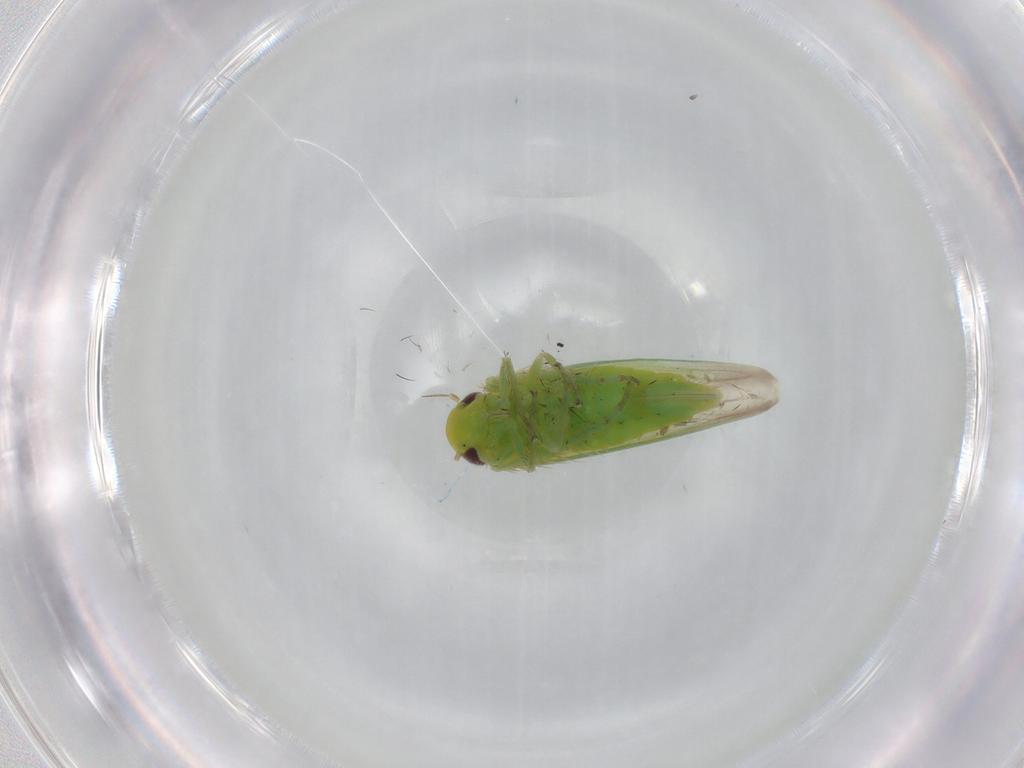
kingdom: Animalia
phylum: Arthropoda
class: Insecta
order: Hemiptera
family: Cicadellidae
